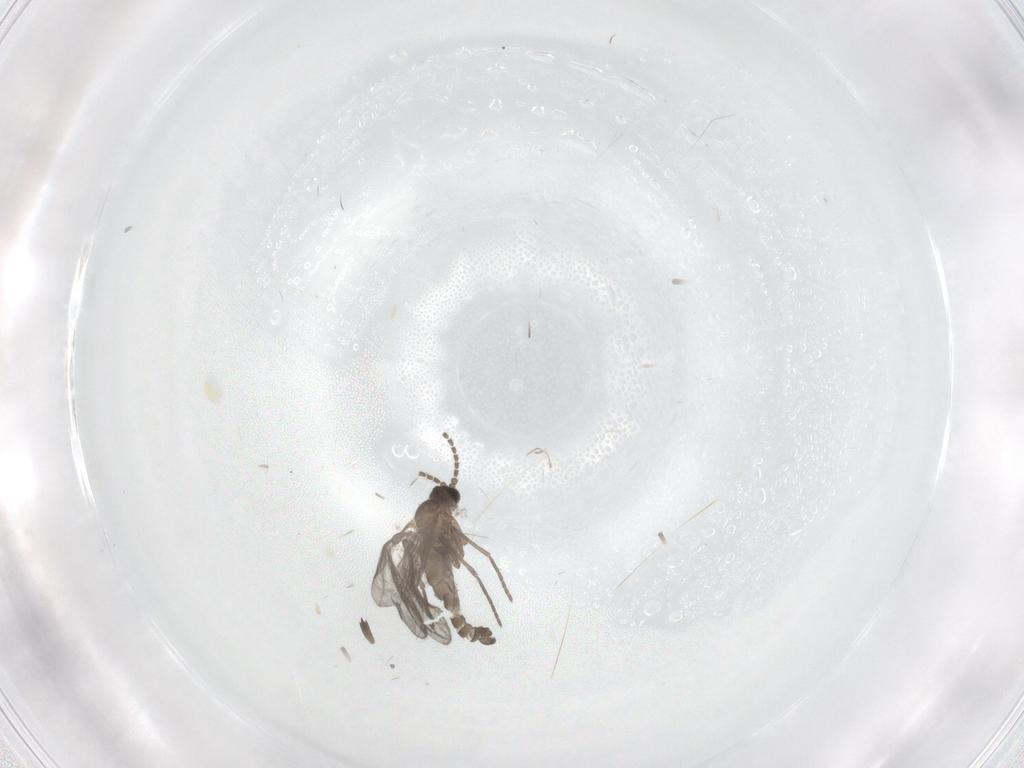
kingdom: Animalia
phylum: Arthropoda
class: Insecta
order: Diptera
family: Sciaridae
